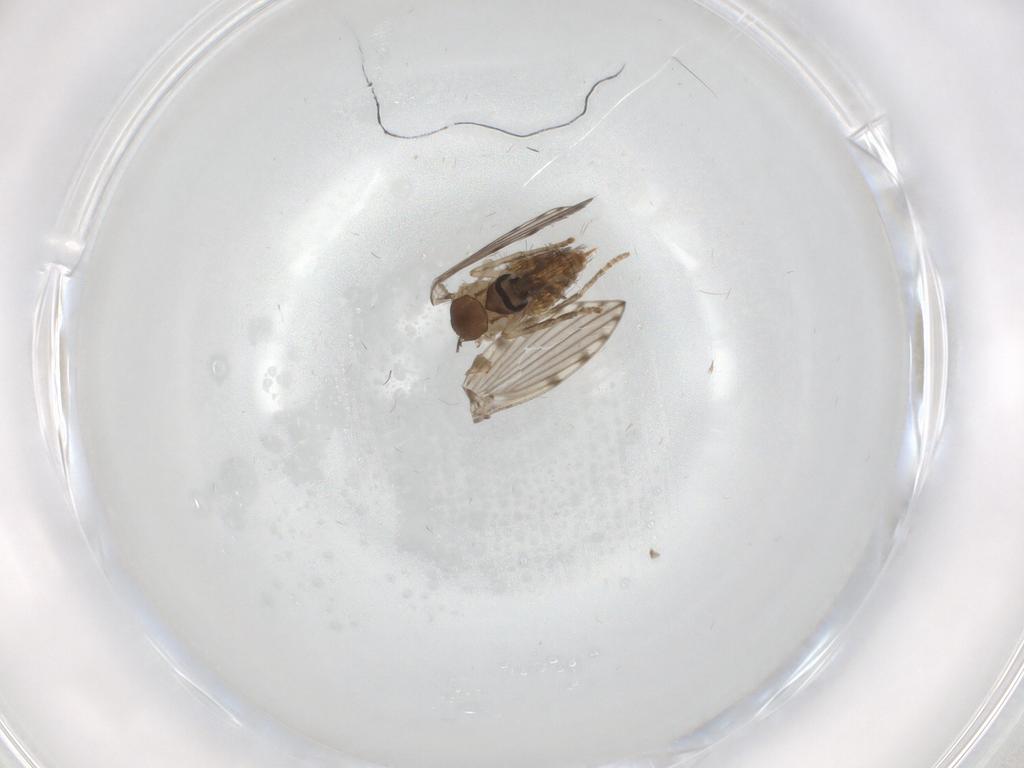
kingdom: Animalia
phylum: Arthropoda
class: Insecta
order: Diptera
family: Psychodidae
